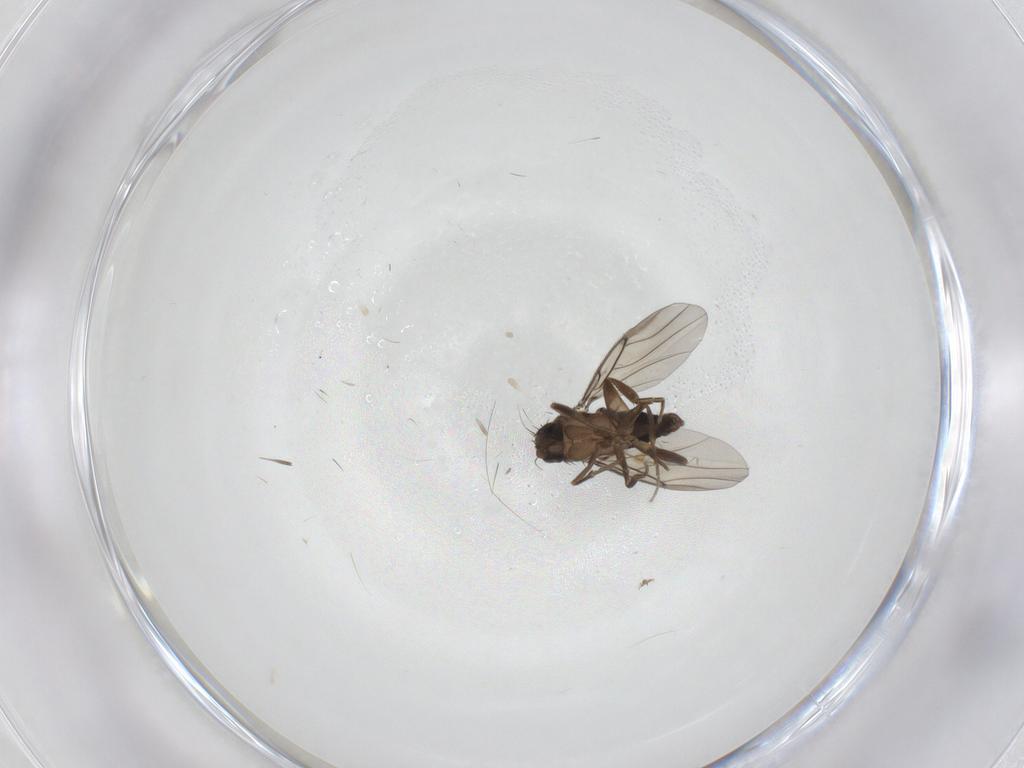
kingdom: Animalia
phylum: Arthropoda
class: Insecta
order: Diptera
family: Phoridae
